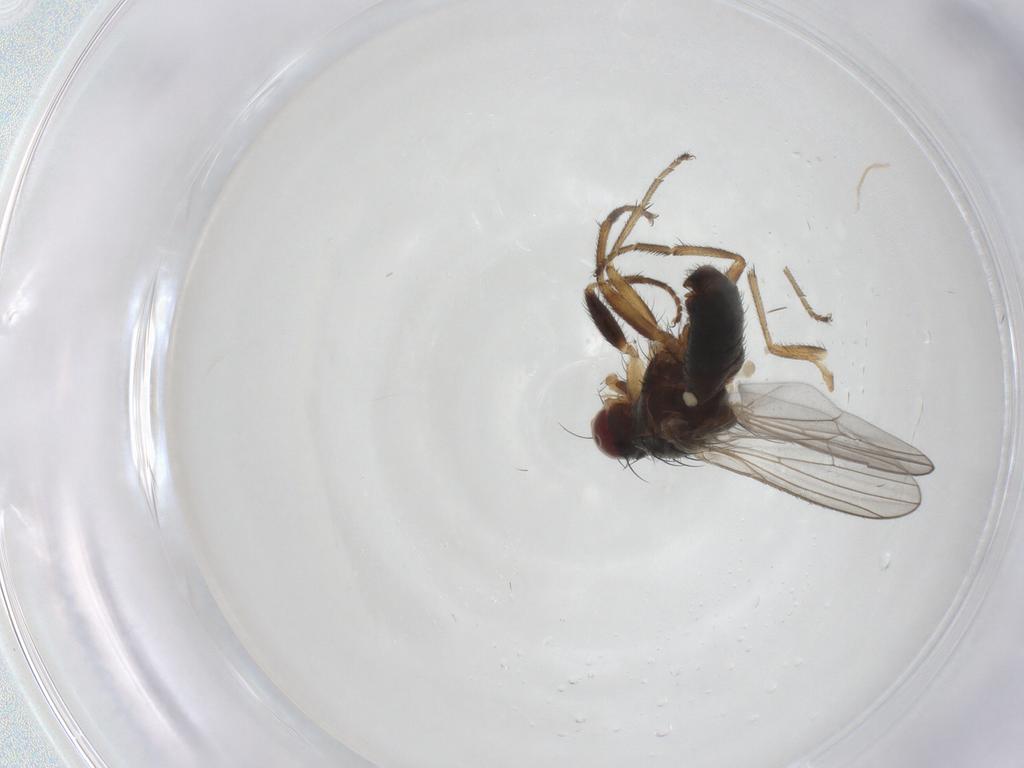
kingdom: Animalia
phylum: Arthropoda
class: Insecta
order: Diptera
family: Heleomyzidae
